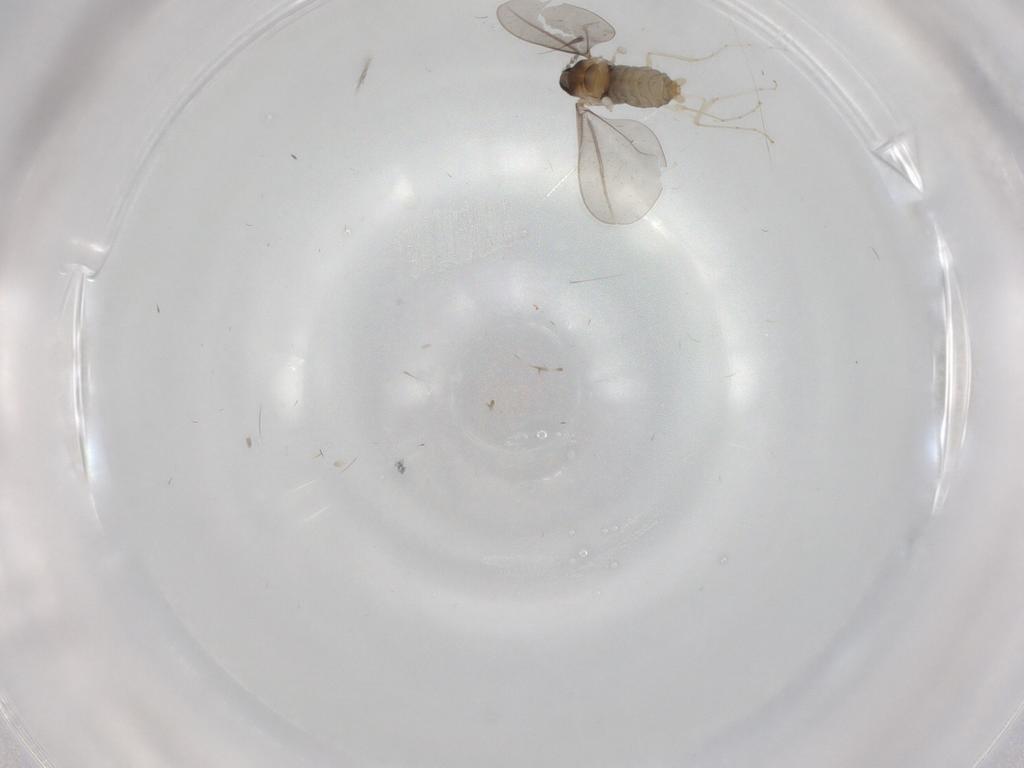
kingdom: Animalia
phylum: Arthropoda
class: Insecta
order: Diptera
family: Cecidomyiidae
